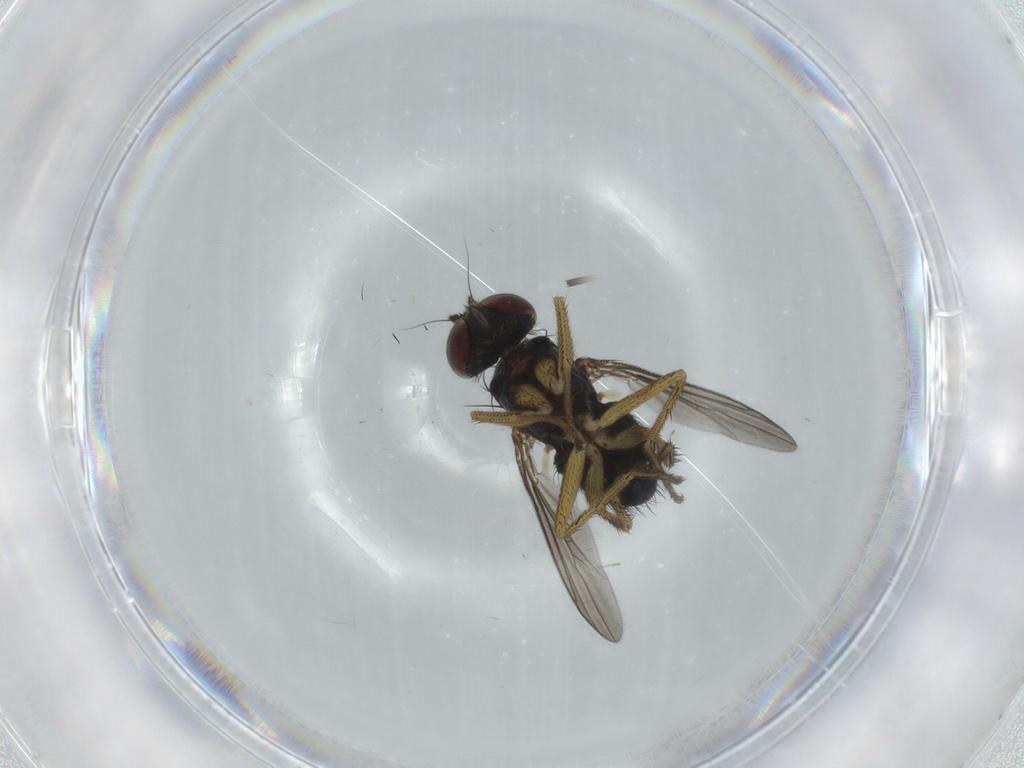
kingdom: Animalia
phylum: Arthropoda
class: Insecta
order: Diptera
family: Dolichopodidae
